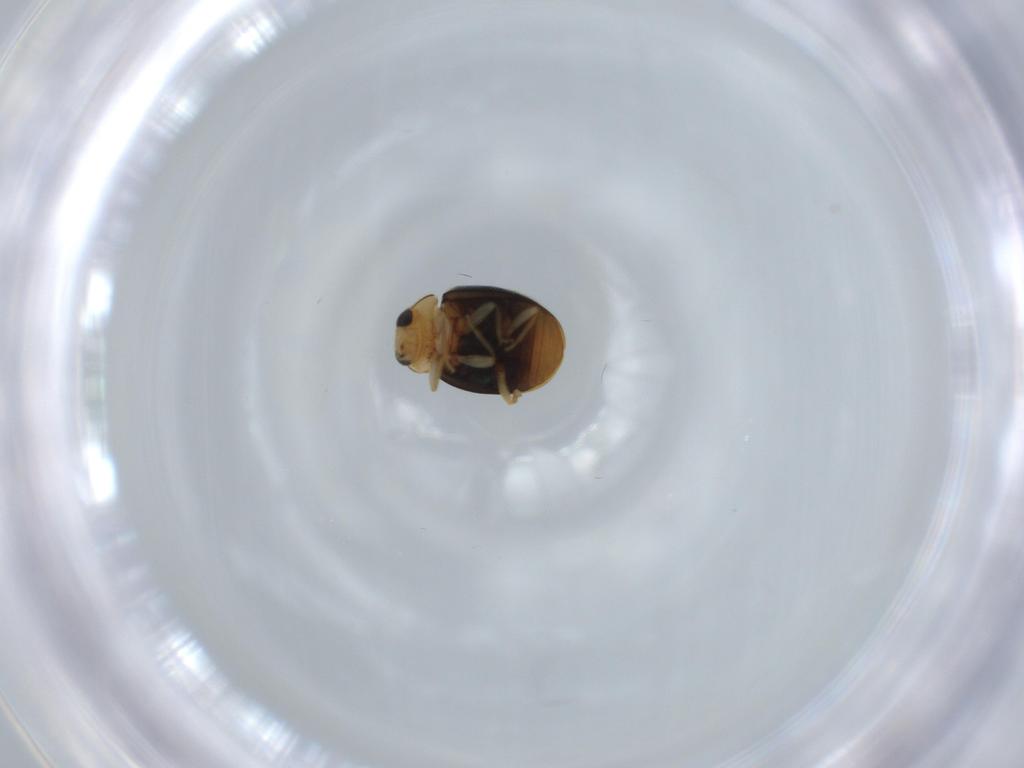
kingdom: Animalia
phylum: Arthropoda
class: Insecta
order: Coleoptera
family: Coccinellidae
